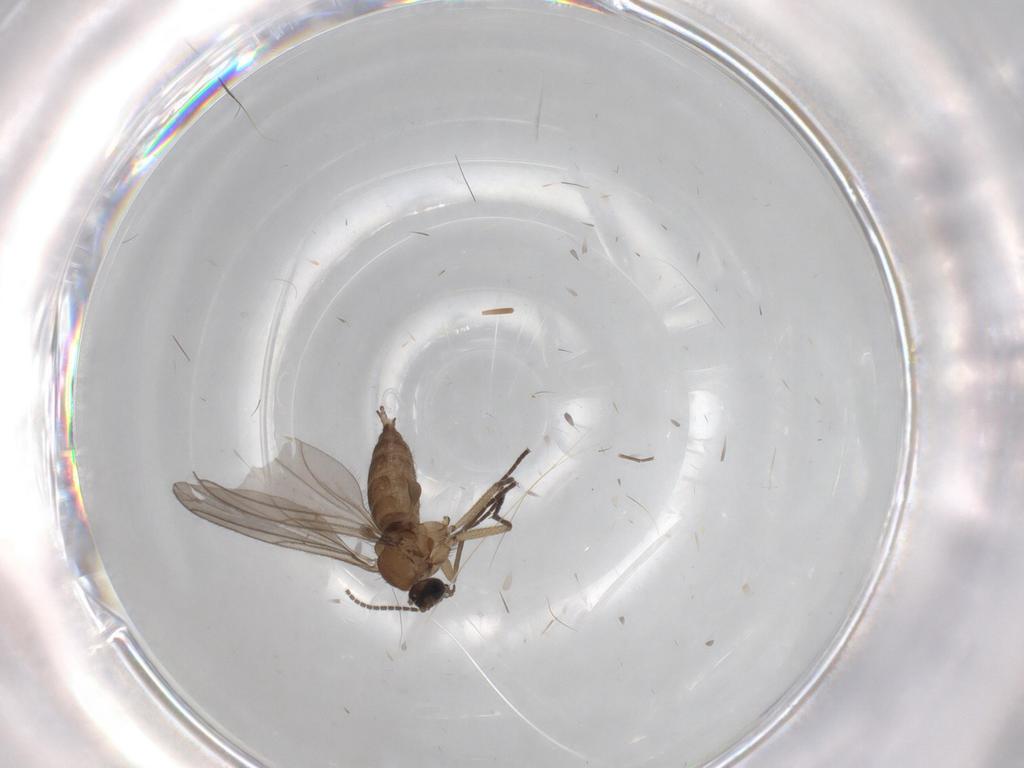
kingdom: Animalia
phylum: Arthropoda
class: Insecta
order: Diptera
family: Sciaridae
